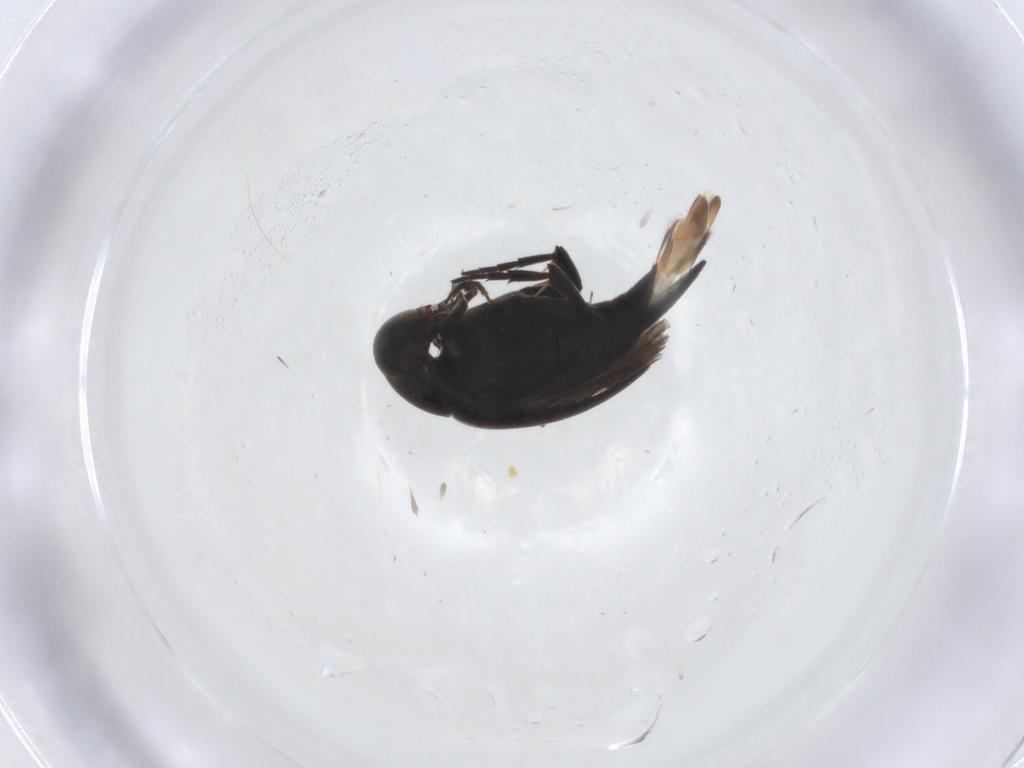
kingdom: Animalia
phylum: Arthropoda
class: Insecta
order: Coleoptera
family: Mordellidae
